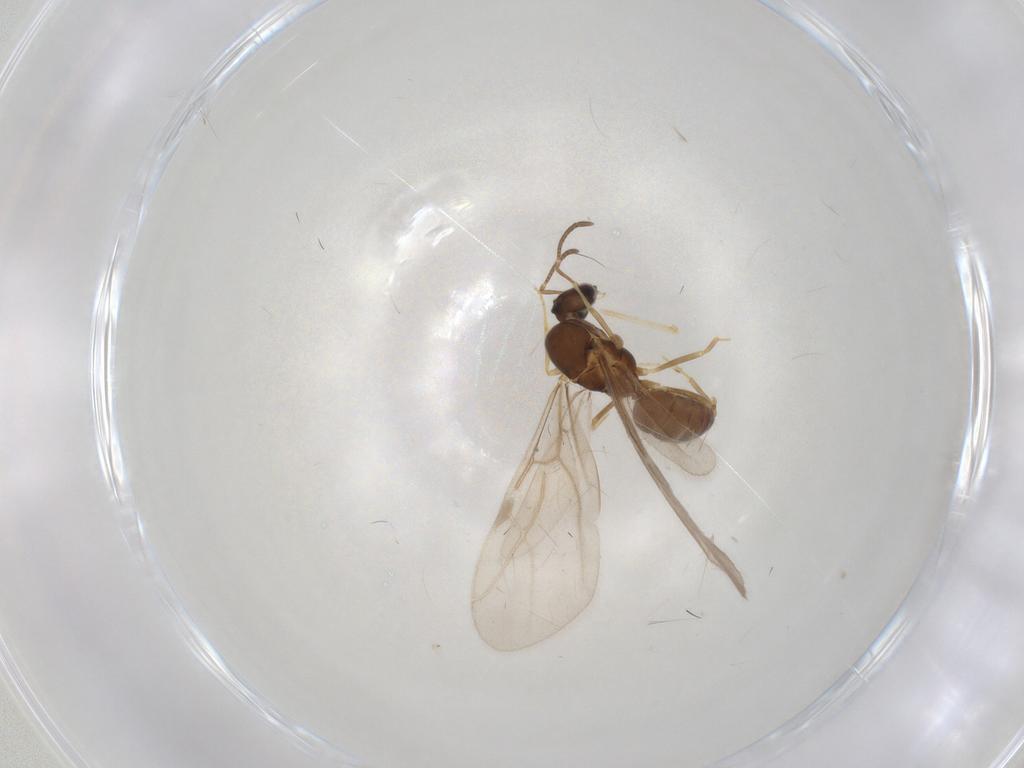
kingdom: Animalia
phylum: Arthropoda
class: Insecta
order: Hymenoptera
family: Formicidae
